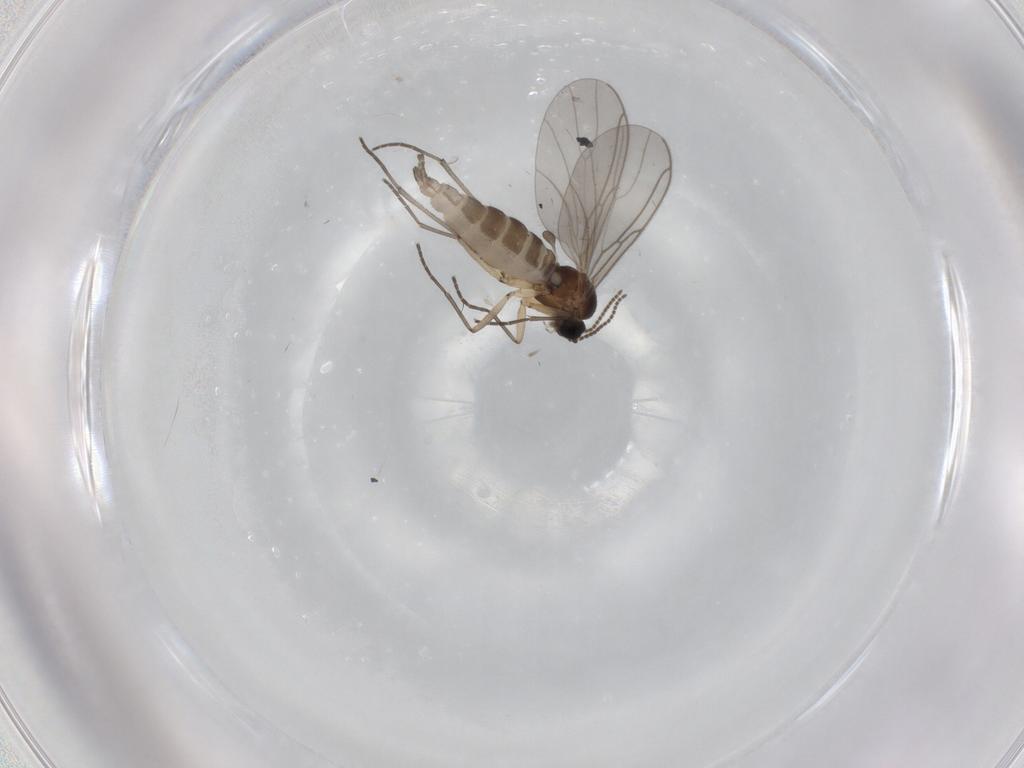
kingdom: Animalia
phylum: Arthropoda
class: Insecta
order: Diptera
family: Sciaridae
